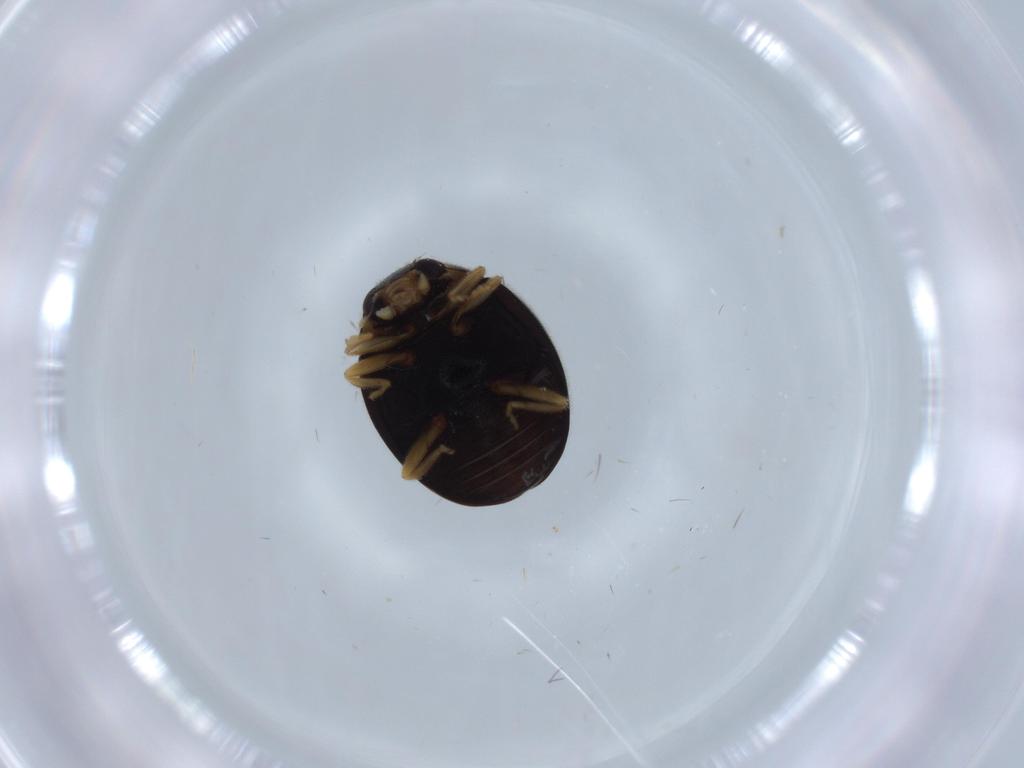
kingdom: Animalia
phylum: Arthropoda
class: Insecta
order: Coleoptera
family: Coccinellidae
